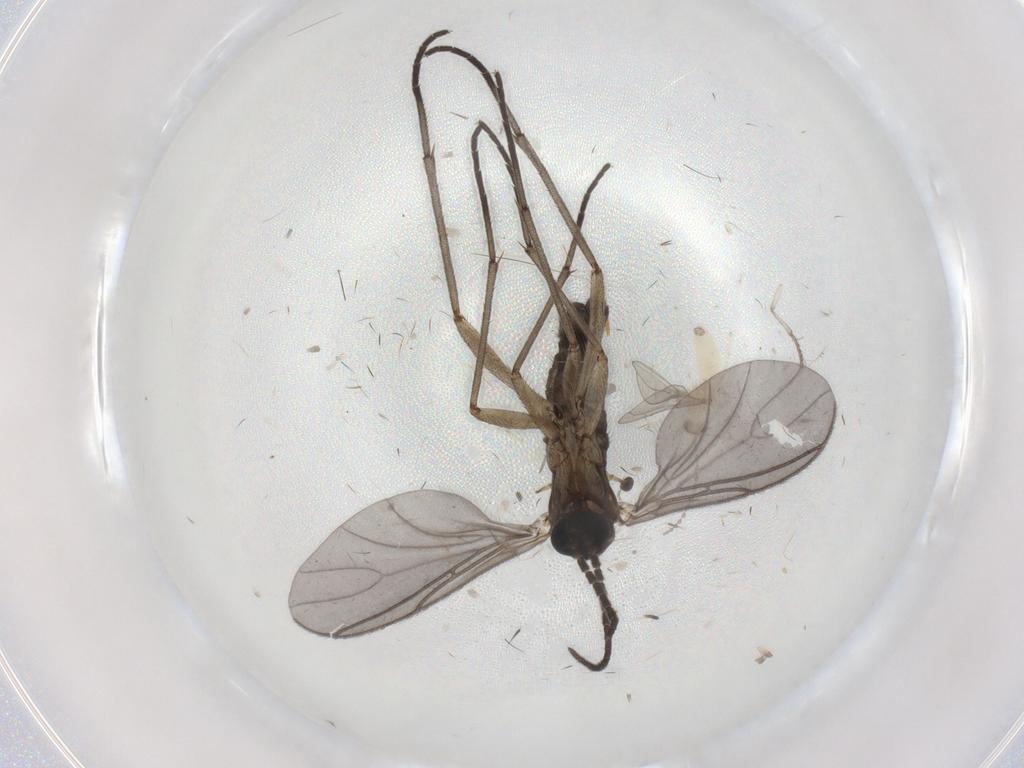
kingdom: Animalia
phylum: Arthropoda
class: Insecta
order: Diptera
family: Sciaridae
